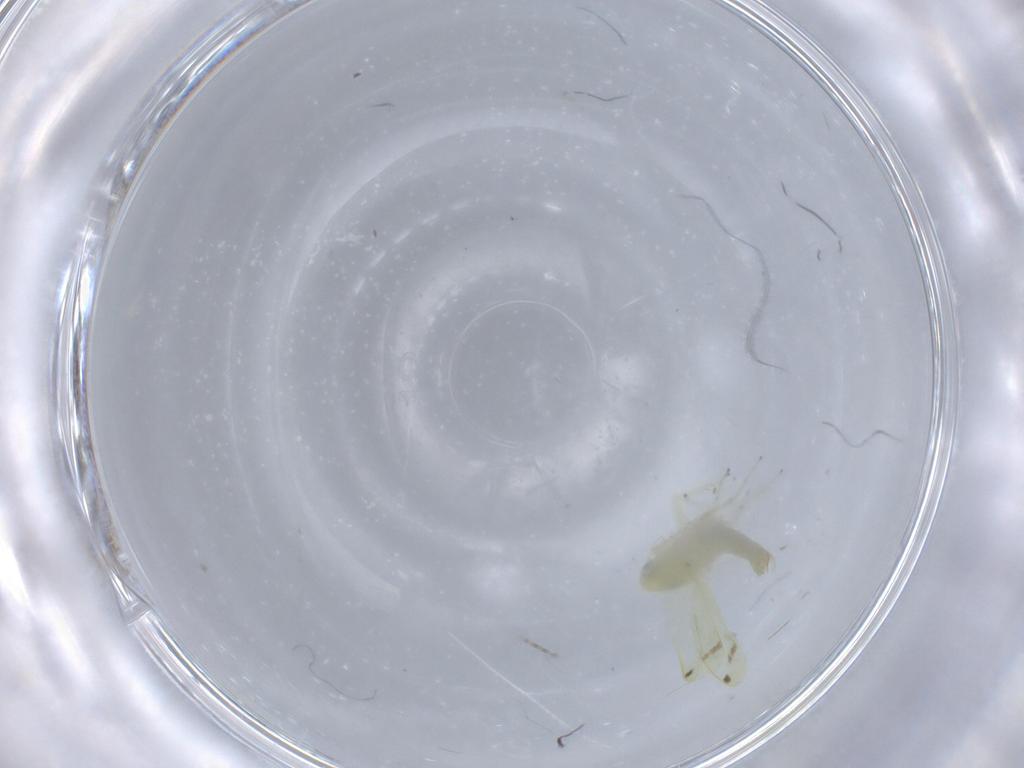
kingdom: Animalia
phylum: Arthropoda
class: Insecta
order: Hemiptera
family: Cicadellidae
